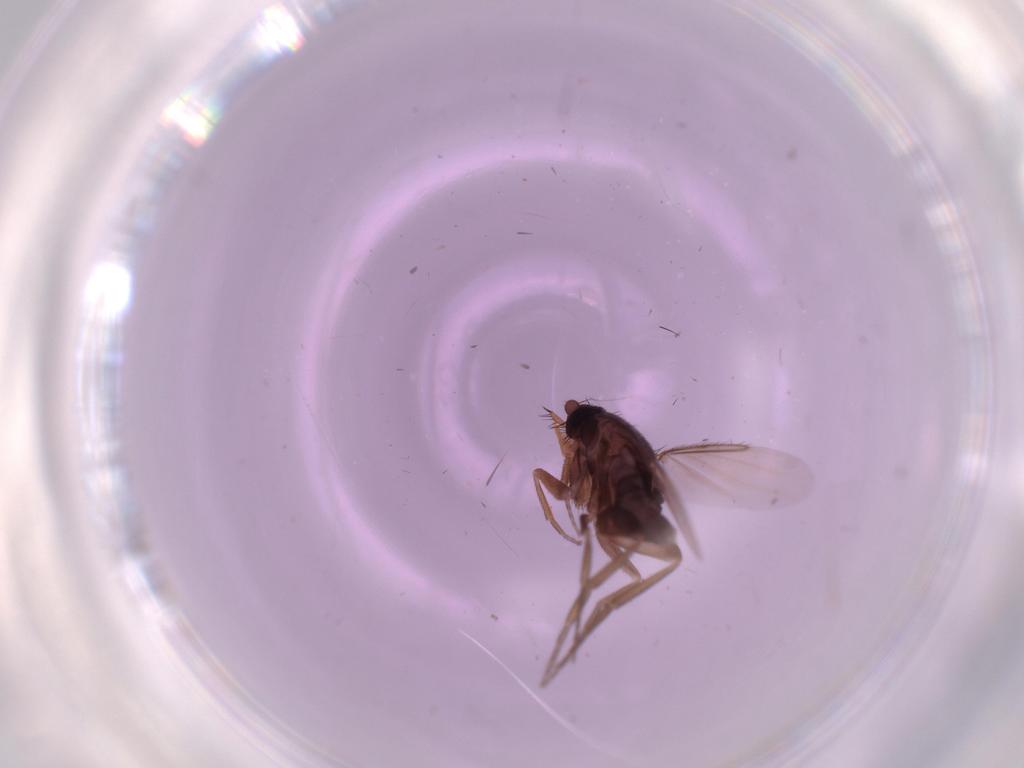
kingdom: Animalia
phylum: Arthropoda
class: Insecta
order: Diptera
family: Phoridae
